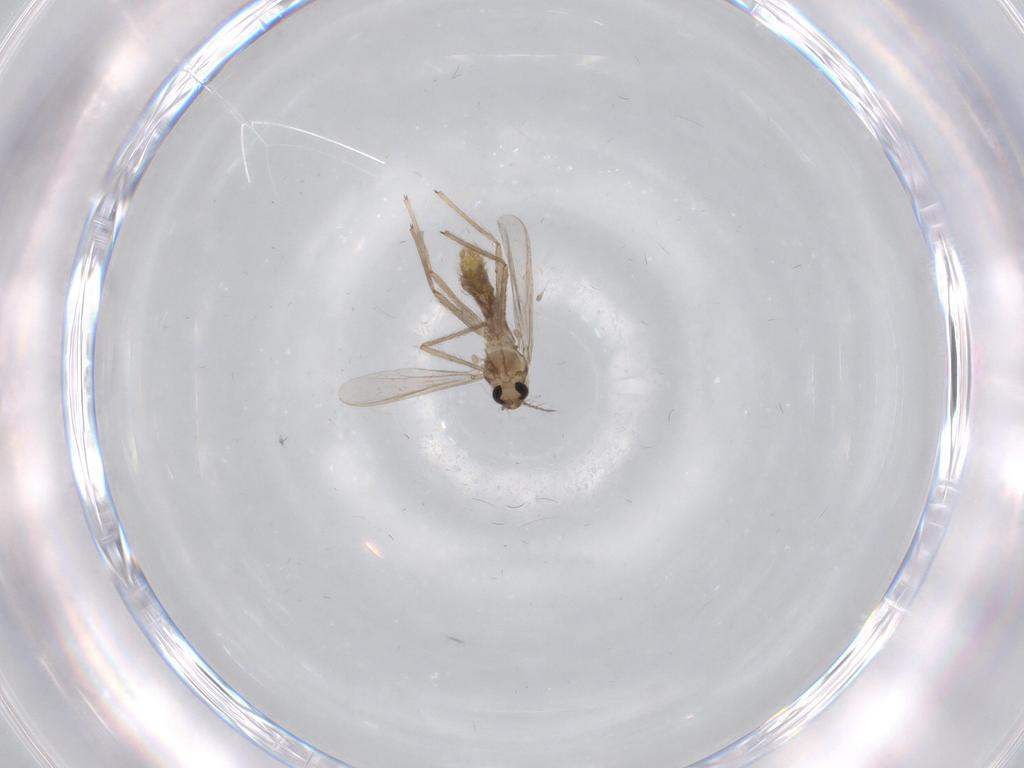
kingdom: Animalia
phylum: Arthropoda
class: Insecta
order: Diptera
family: Chironomidae
